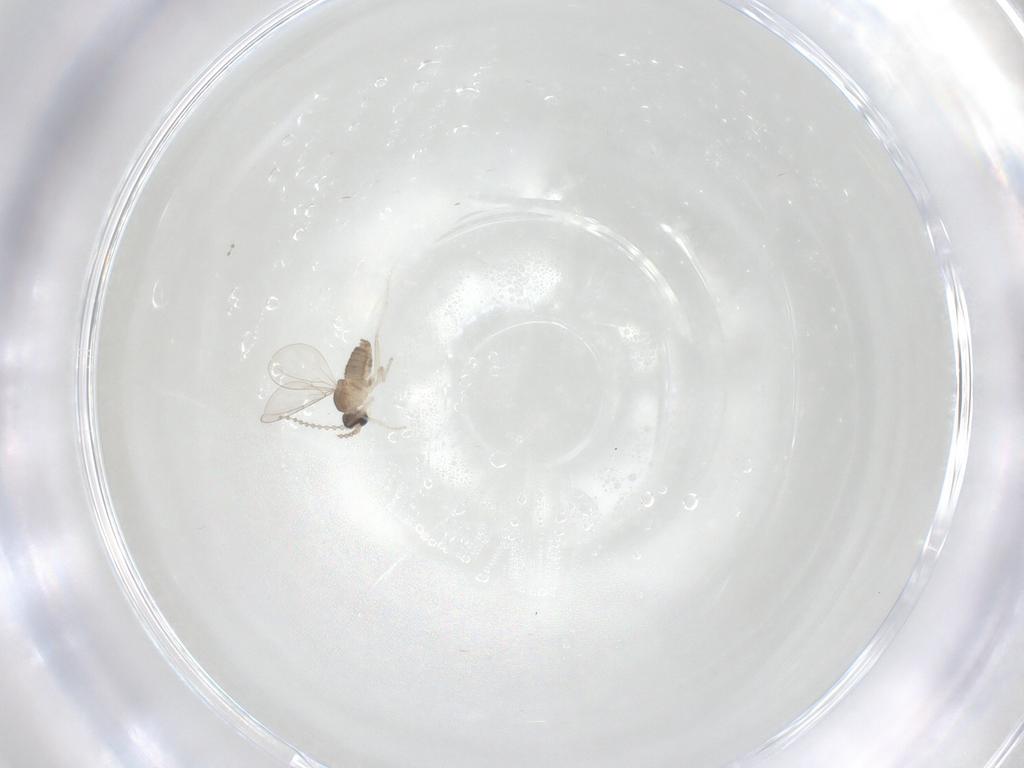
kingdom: Animalia
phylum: Arthropoda
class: Insecta
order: Diptera
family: Cecidomyiidae
